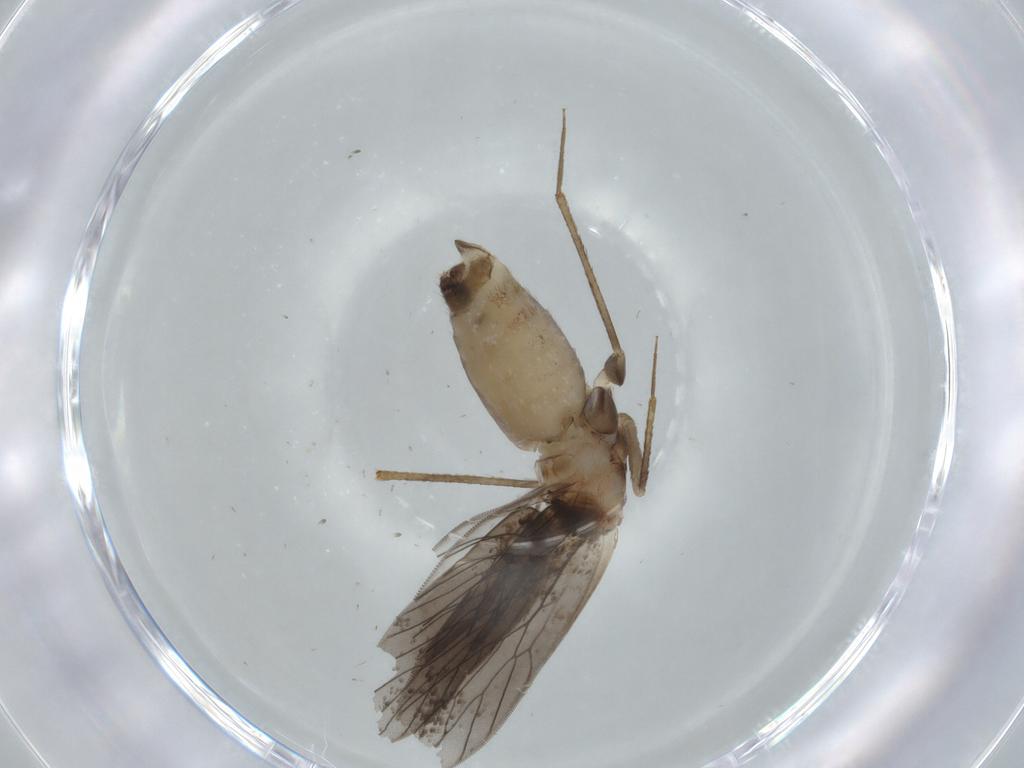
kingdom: Animalia
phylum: Arthropoda
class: Insecta
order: Psocodea
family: Lepidopsocidae
